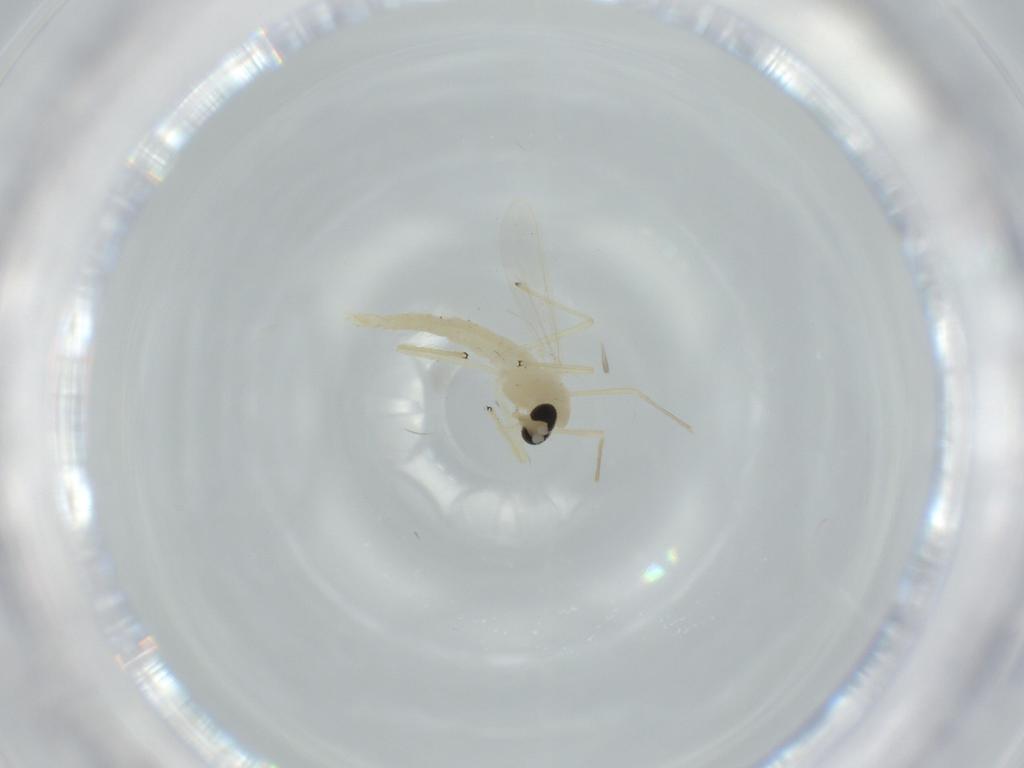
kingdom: Animalia
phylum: Arthropoda
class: Insecta
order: Diptera
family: Chironomidae
